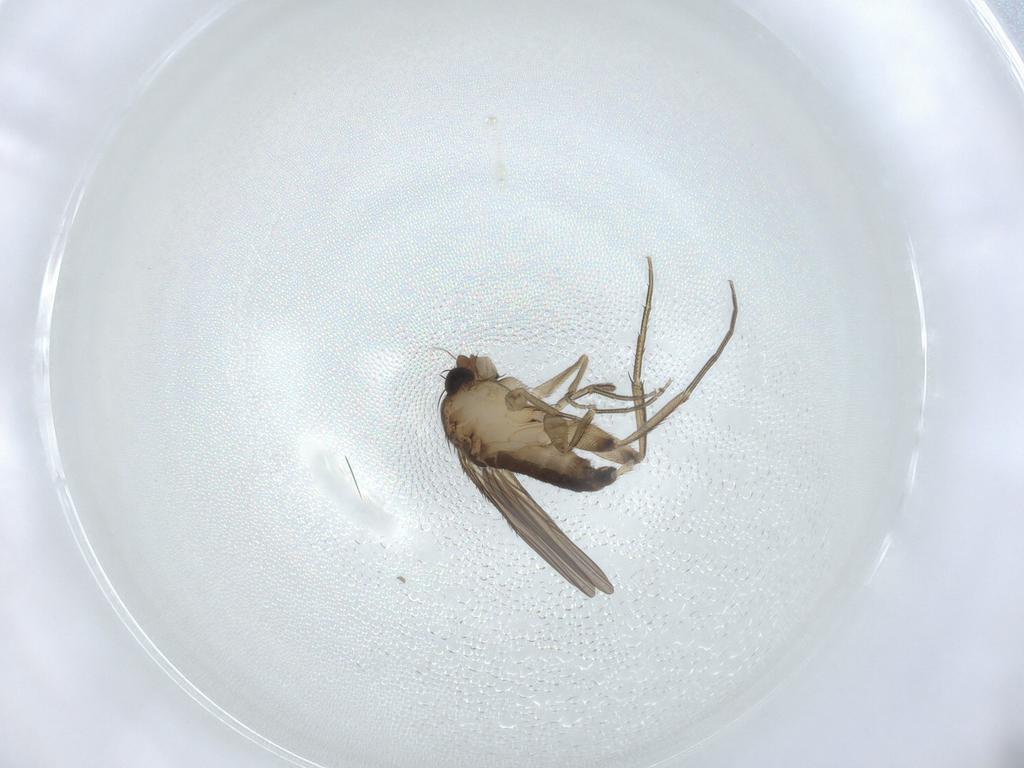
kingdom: Animalia
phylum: Arthropoda
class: Insecta
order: Diptera
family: Phoridae
